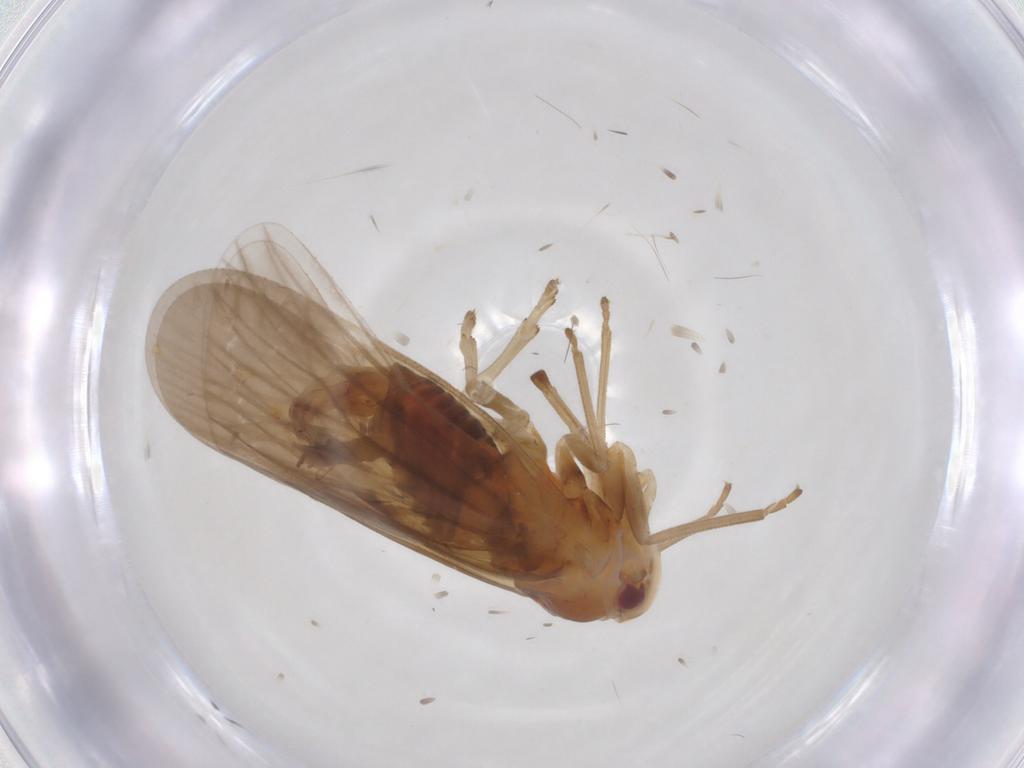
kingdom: Animalia
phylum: Arthropoda
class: Insecta
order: Hemiptera
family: Derbidae
